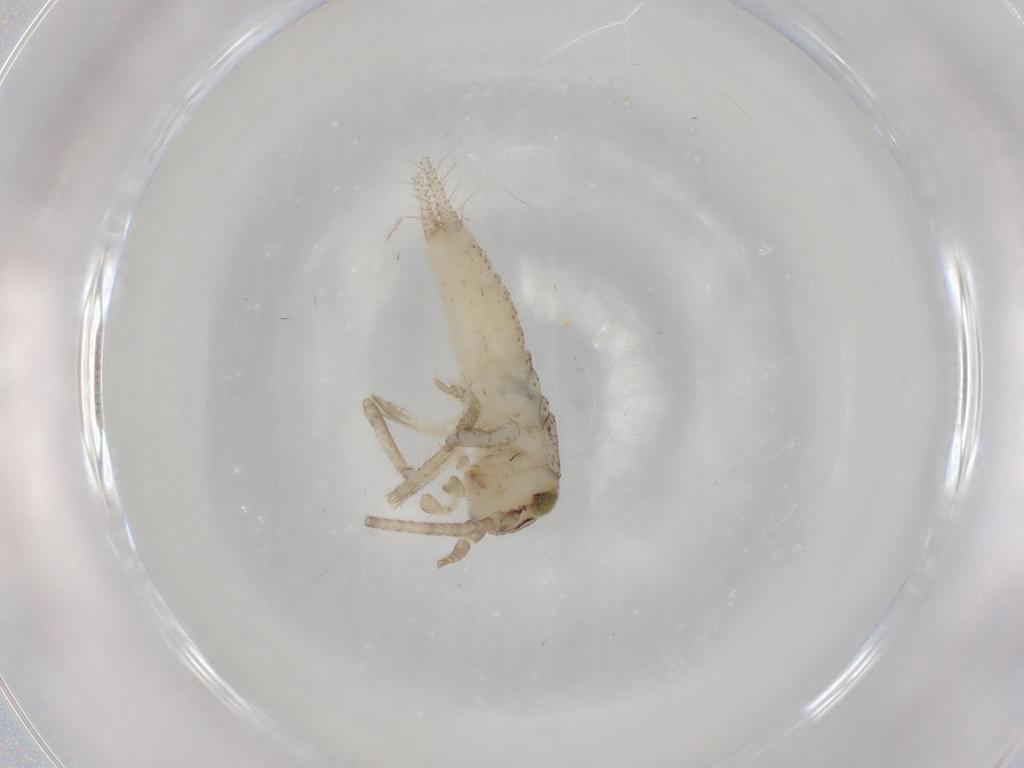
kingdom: Animalia
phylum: Arthropoda
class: Insecta
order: Orthoptera
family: Gryllidae
